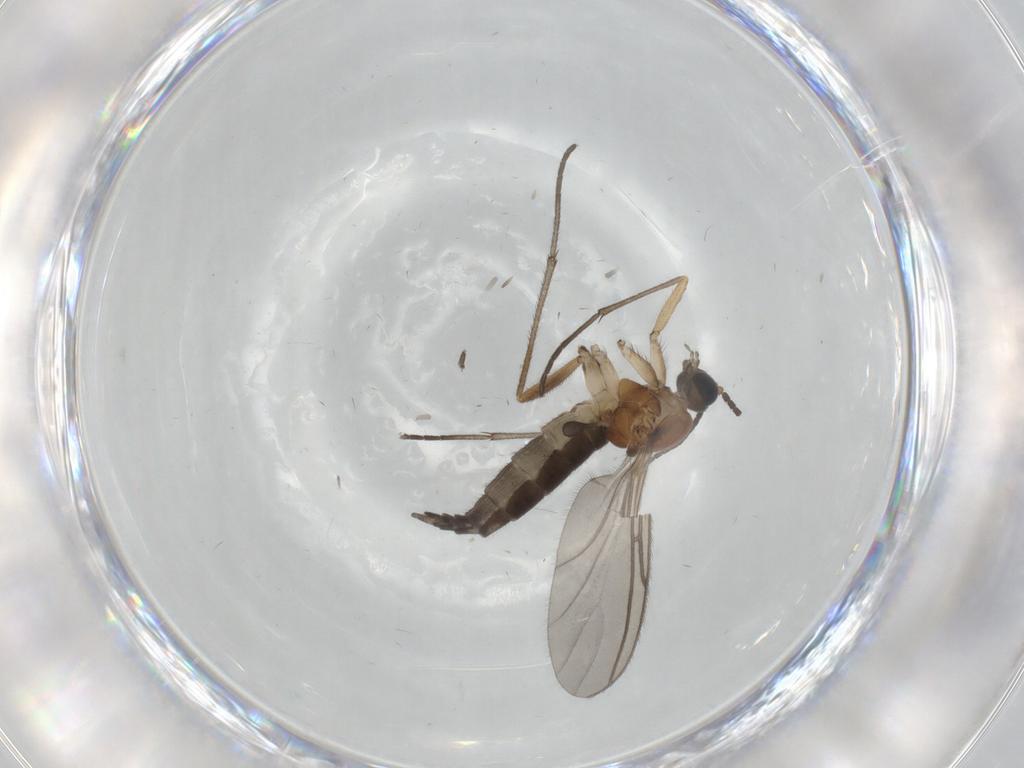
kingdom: Animalia
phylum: Arthropoda
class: Insecta
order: Diptera
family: Sciaridae
